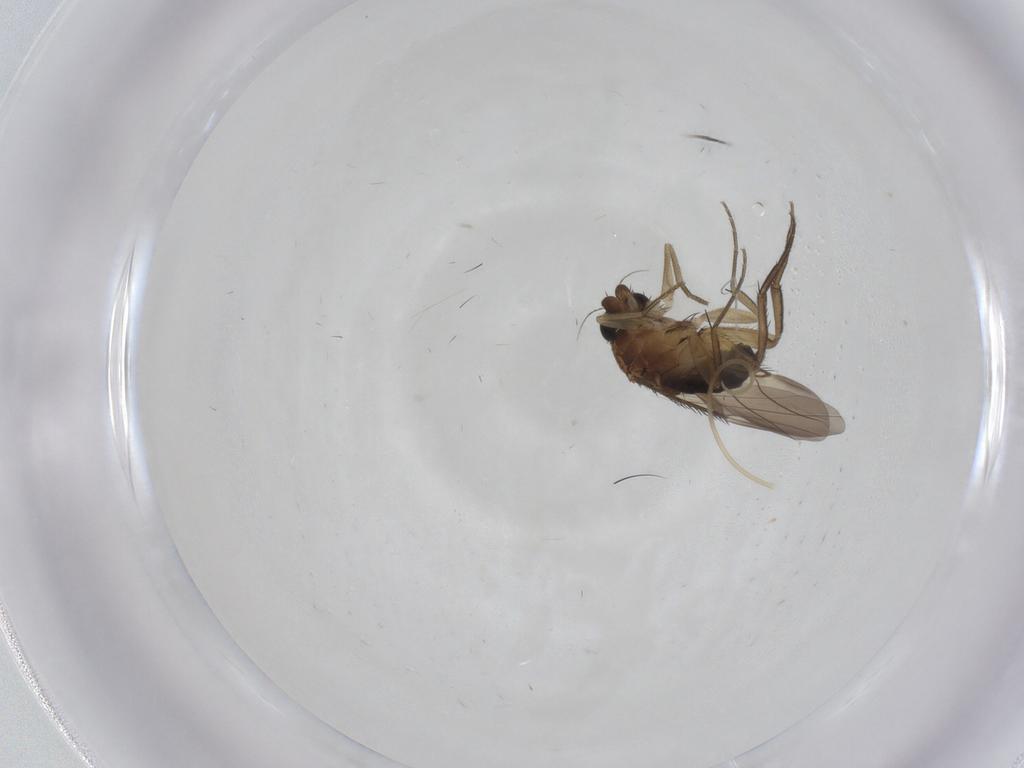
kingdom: Animalia
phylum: Arthropoda
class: Insecta
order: Diptera
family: Phoridae
